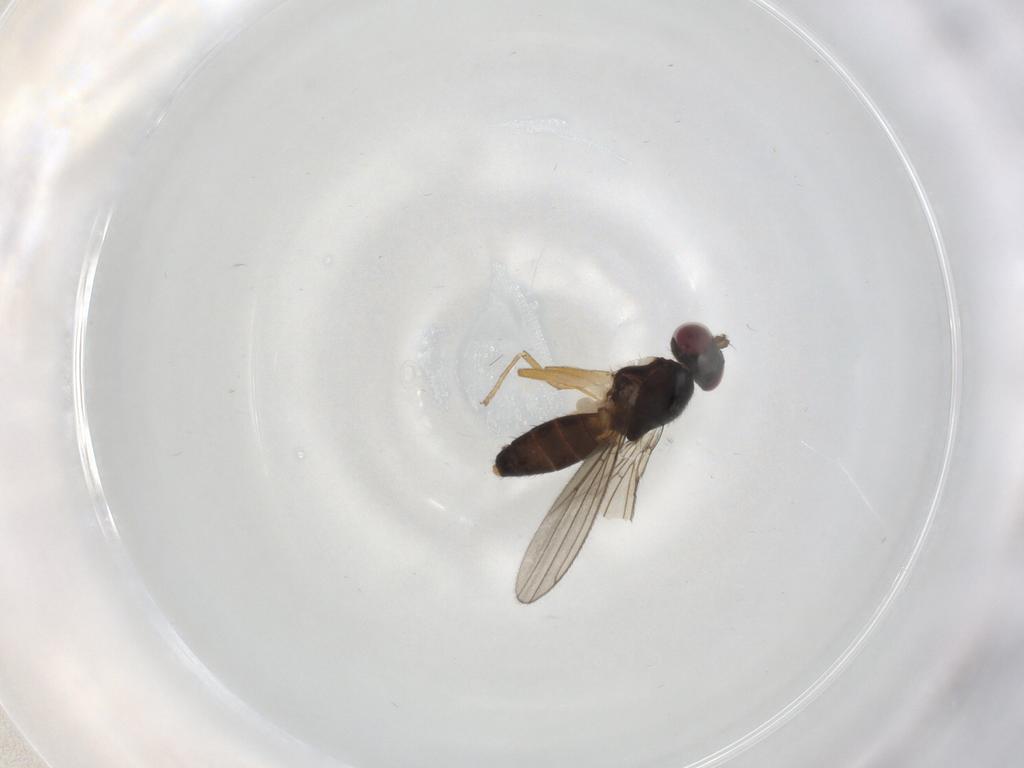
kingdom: Animalia
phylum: Arthropoda
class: Insecta
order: Diptera
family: Anthomyzidae
